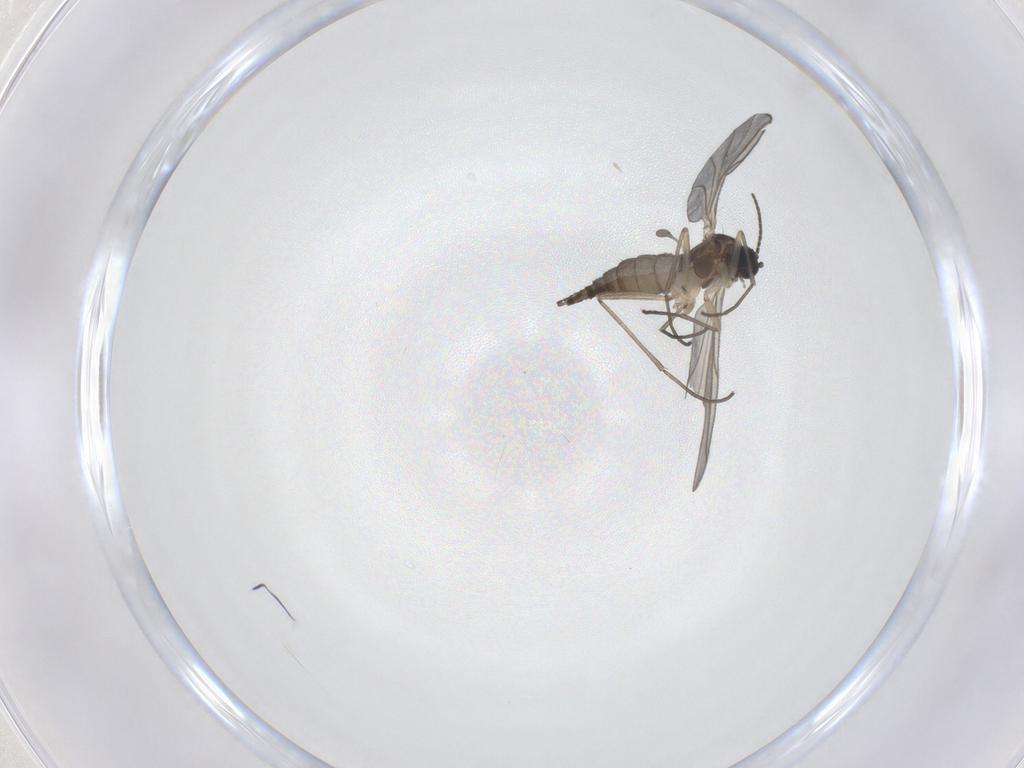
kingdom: Animalia
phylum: Arthropoda
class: Insecta
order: Diptera
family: Sciaridae
